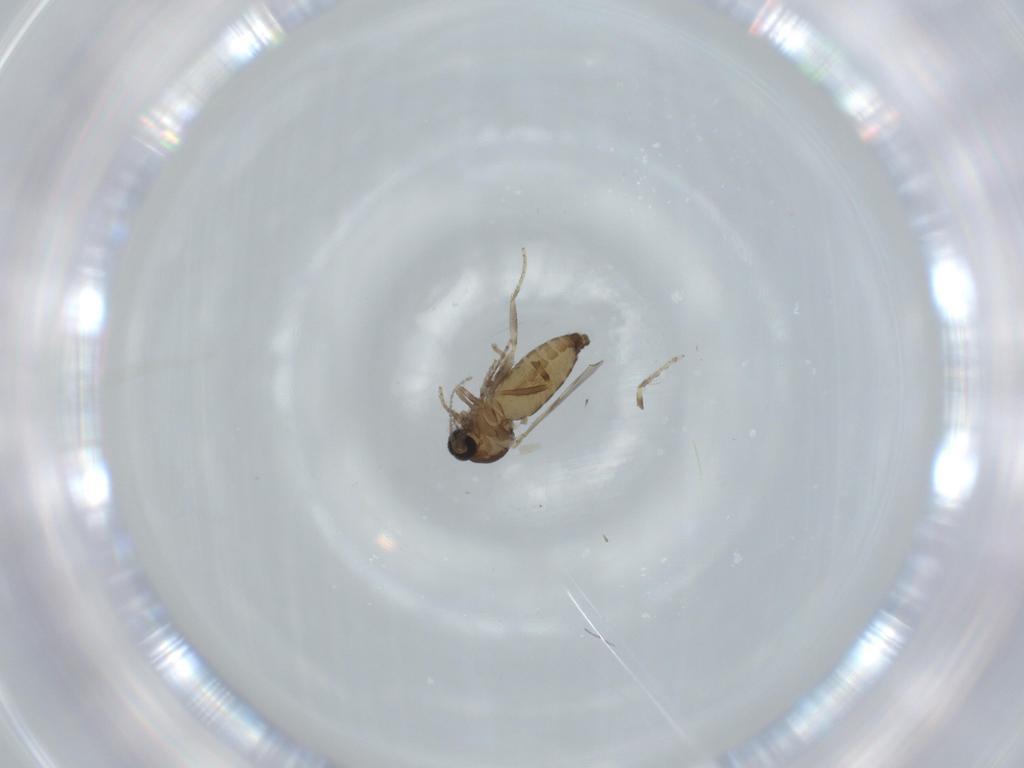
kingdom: Animalia
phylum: Arthropoda
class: Insecta
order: Diptera
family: Ceratopogonidae
